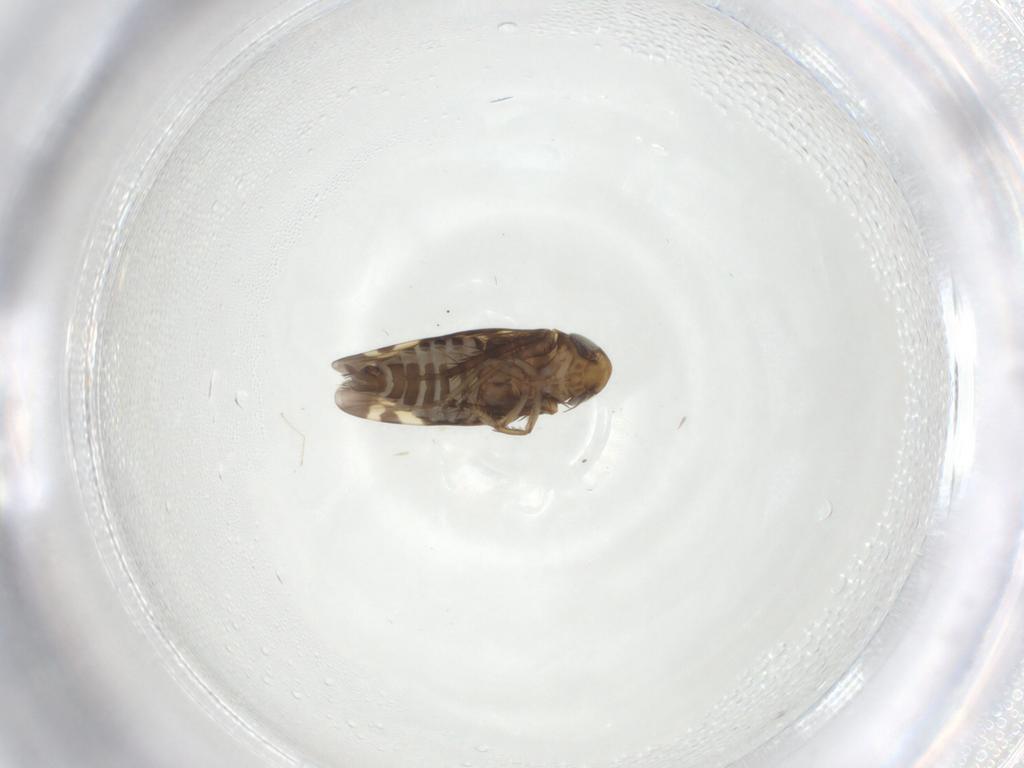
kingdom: Animalia
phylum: Arthropoda
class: Insecta
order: Hemiptera
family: Cicadellidae
